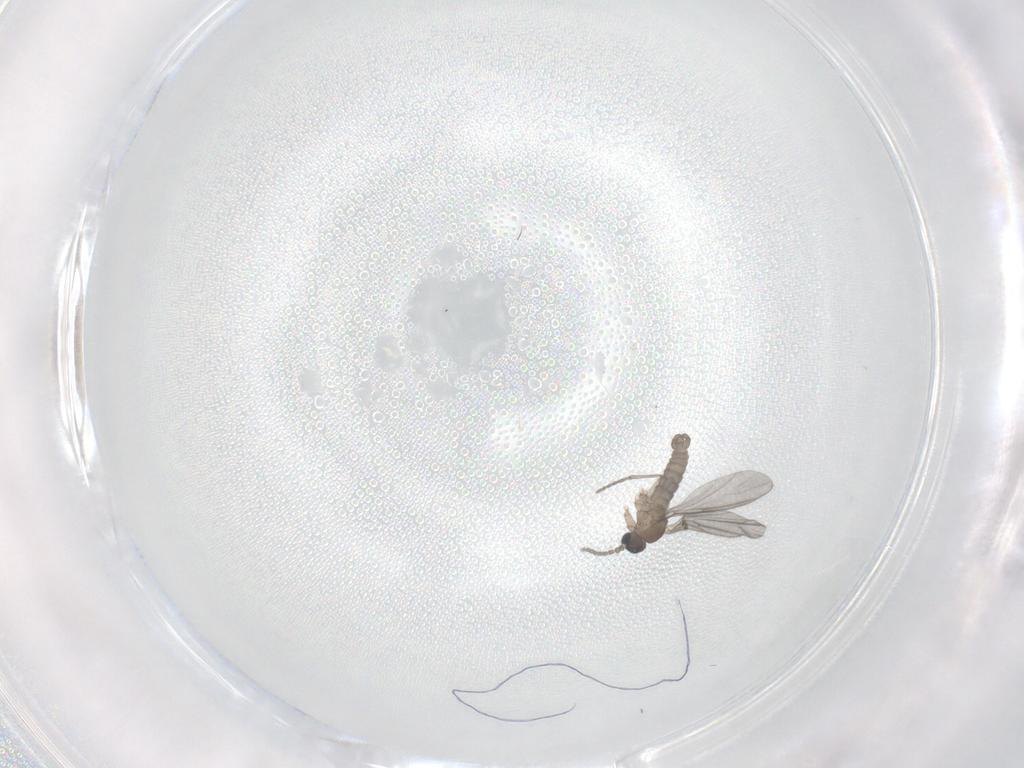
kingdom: Animalia
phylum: Arthropoda
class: Insecta
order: Diptera
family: Sciaridae
